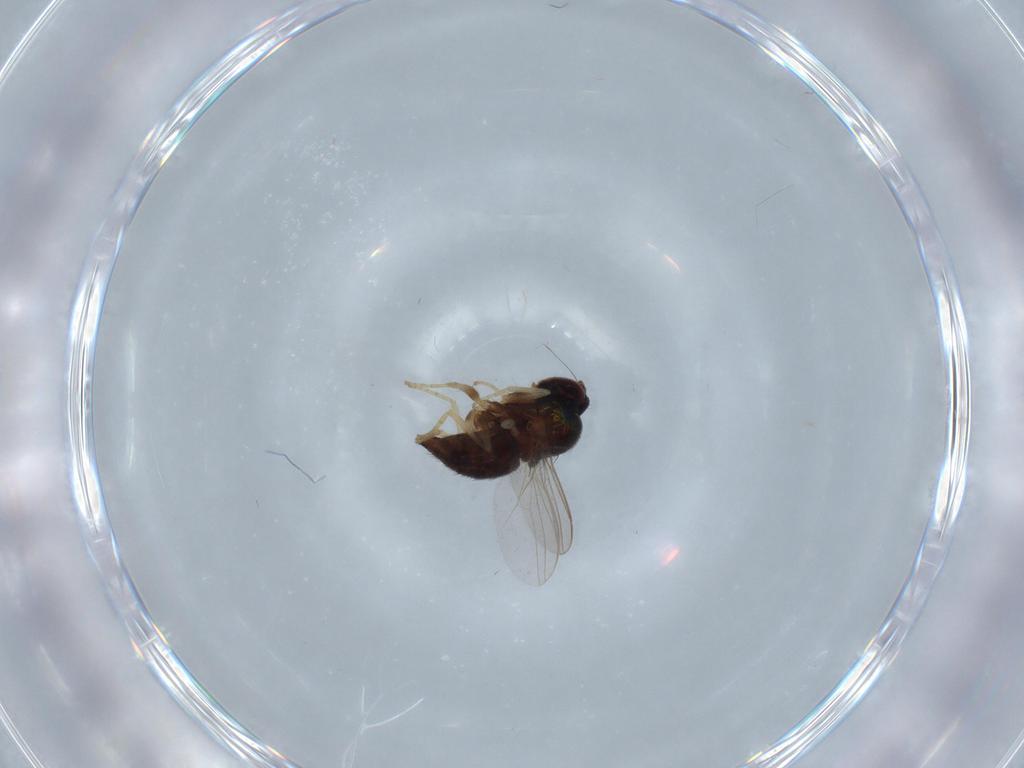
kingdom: Animalia
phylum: Arthropoda
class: Insecta
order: Diptera
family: Dolichopodidae
